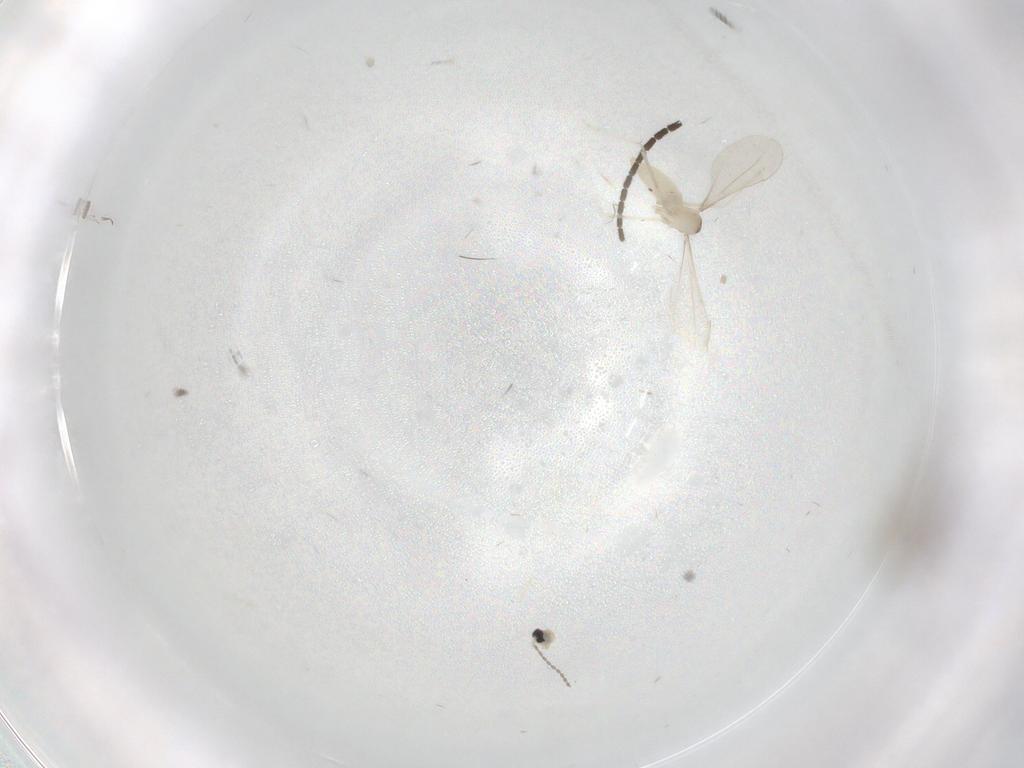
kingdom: Animalia
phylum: Arthropoda
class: Insecta
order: Diptera
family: Chironomidae
